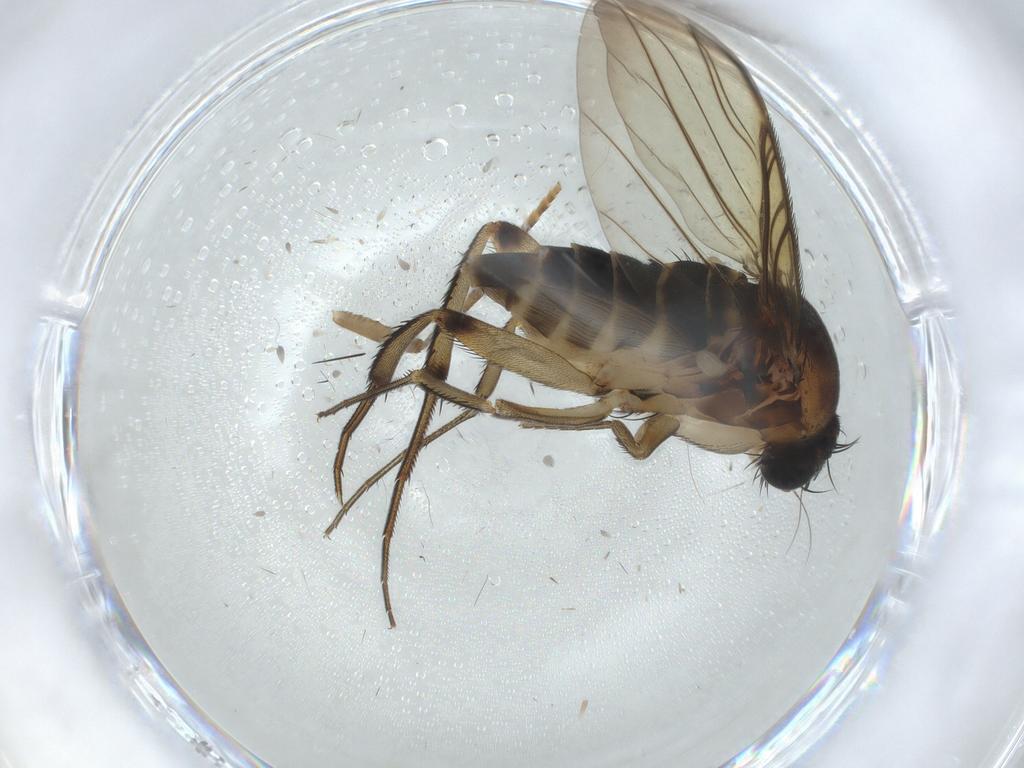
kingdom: Animalia
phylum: Arthropoda
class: Insecta
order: Diptera
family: Phoridae
